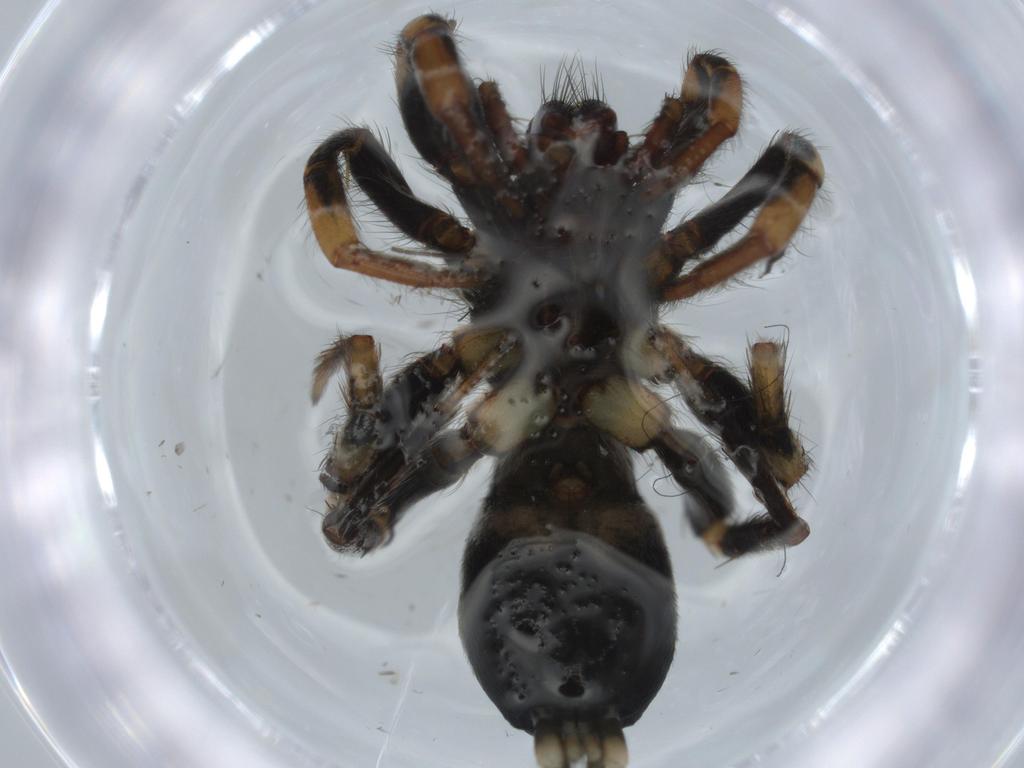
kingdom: Animalia
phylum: Arthropoda
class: Arachnida
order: Araneae
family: Gnaphosidae
